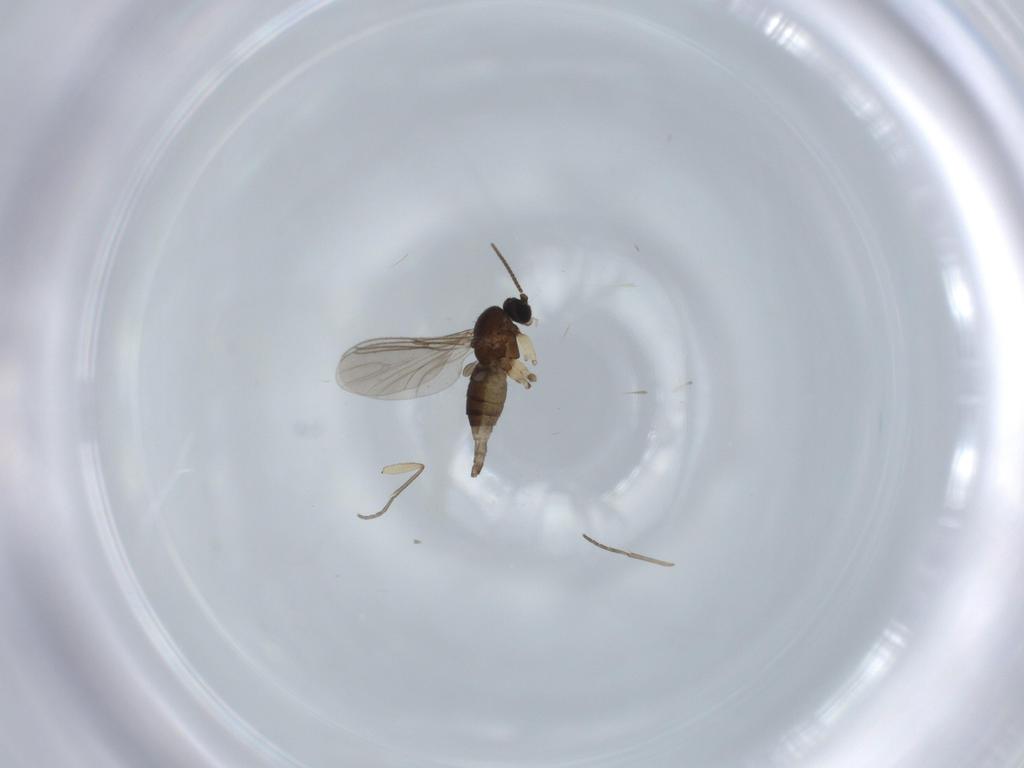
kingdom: Animalia
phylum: Arthropoda
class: Insecta
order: Diptera
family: Sciaridae
